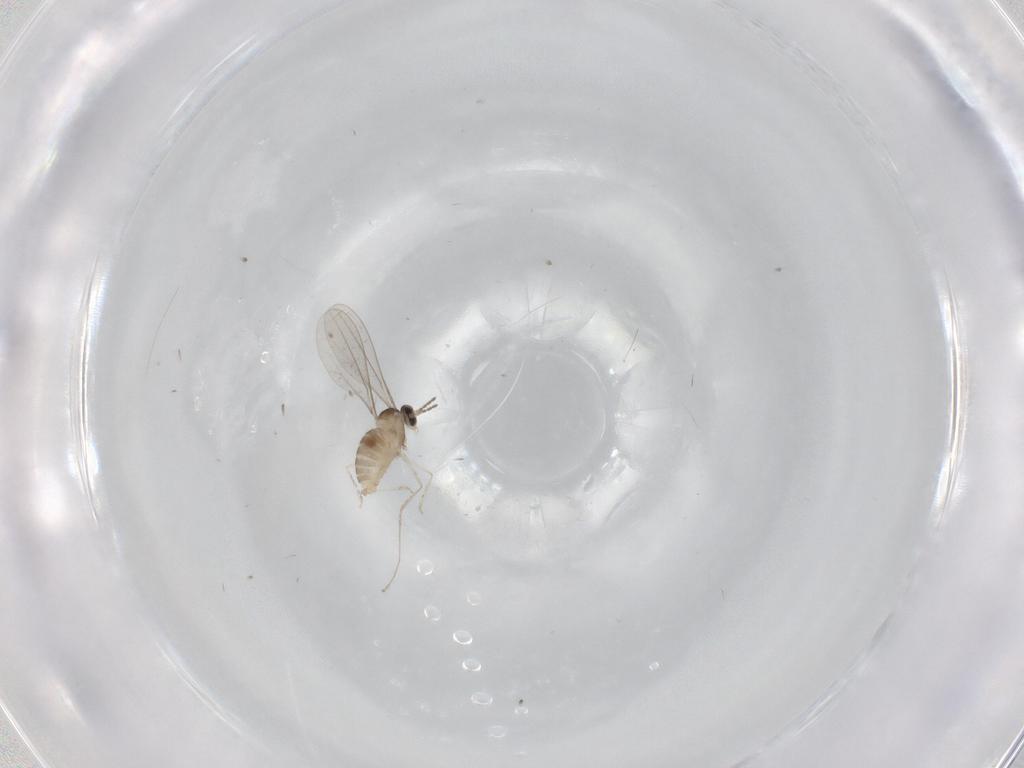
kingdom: Animalia
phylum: Arthropoda
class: Insecta
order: Diptera
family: Cecidomyiidae
